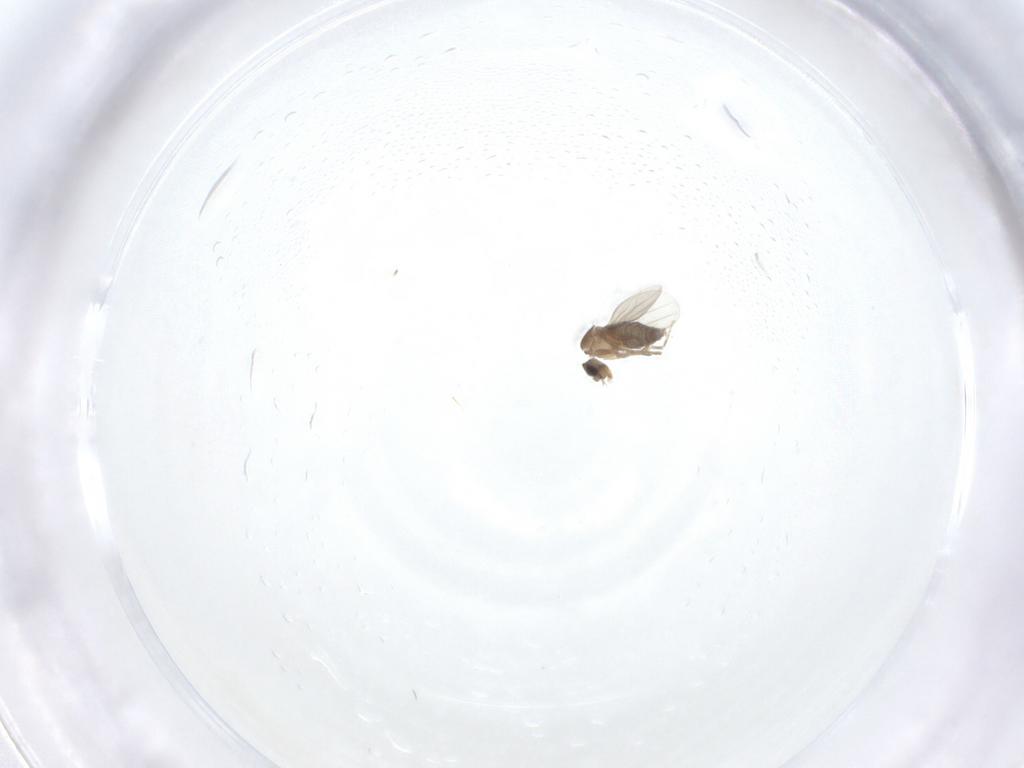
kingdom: Animalia
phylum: Arthropoda
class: Insecta
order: Diptera
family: Phoridae
